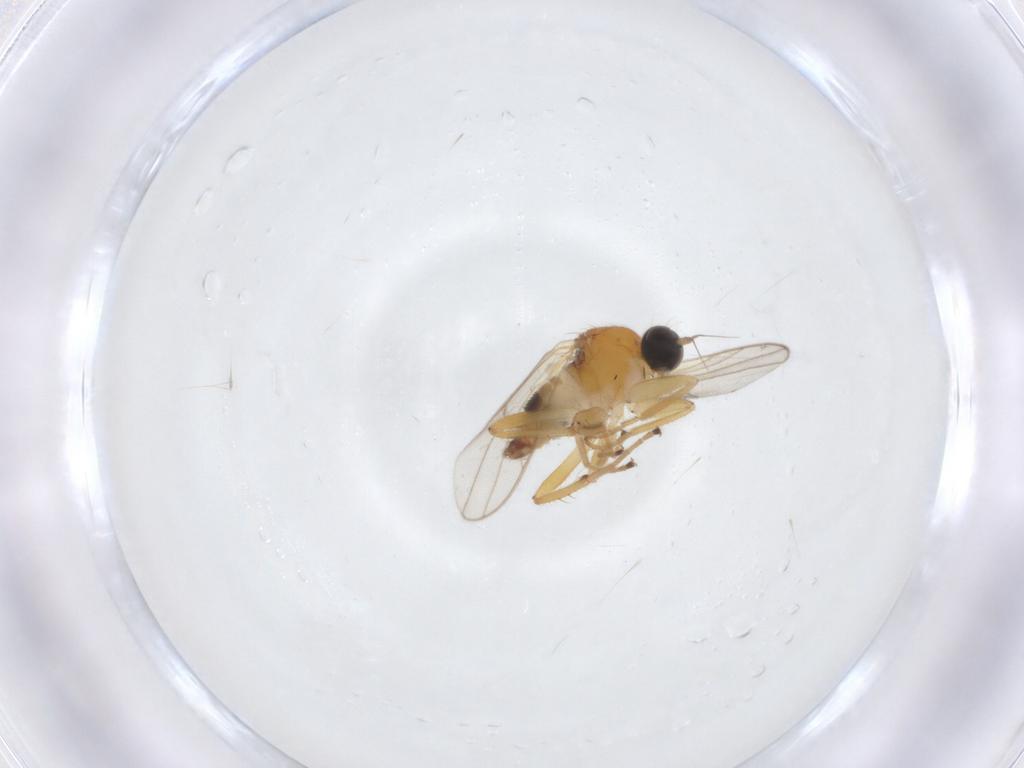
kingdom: Animalia
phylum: Arthropoda
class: Insecta
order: Diptera
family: Hybotidae
